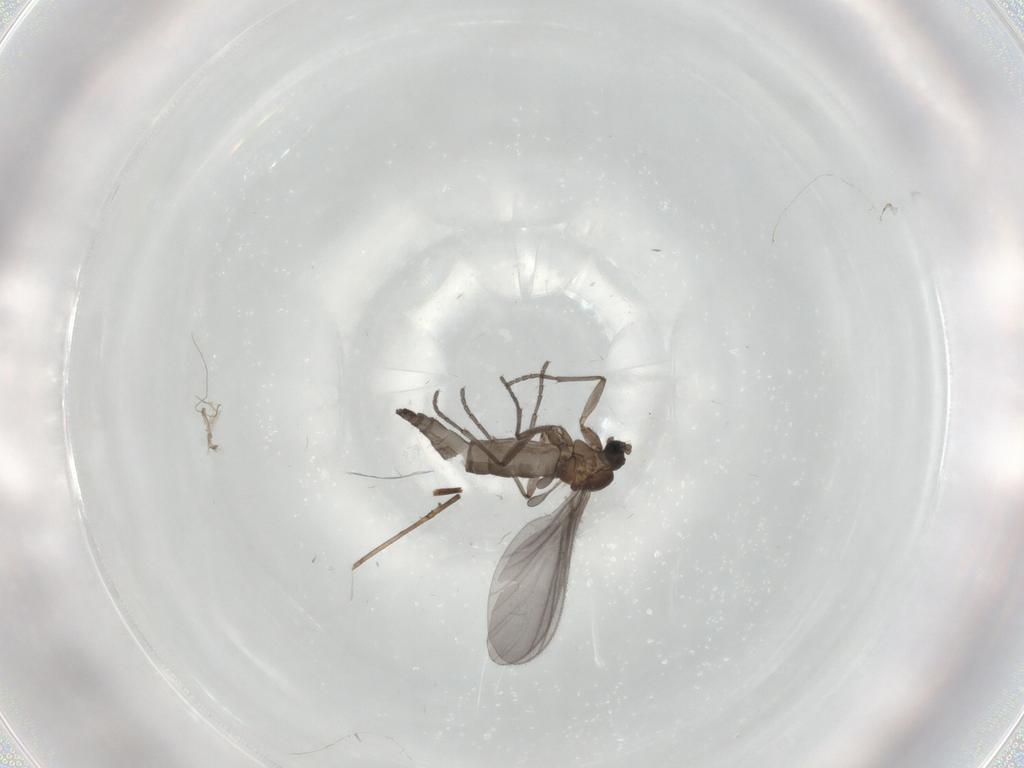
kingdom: Animalia
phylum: Arthropoda
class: Insecta
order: Diptera
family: Sciaridae
